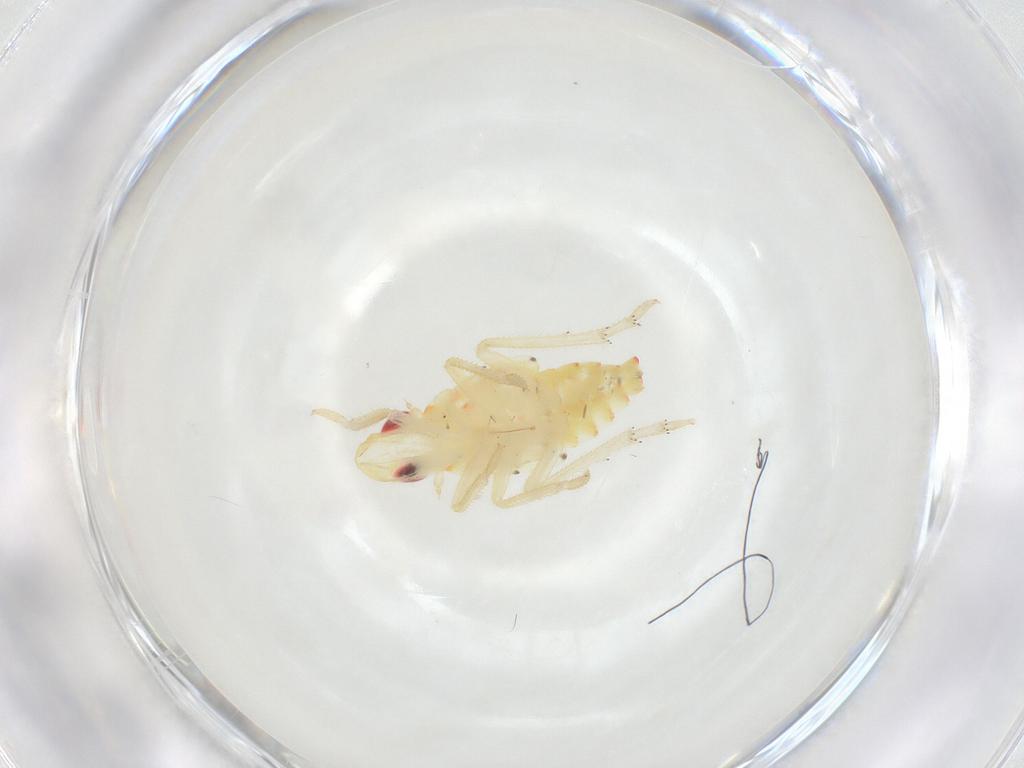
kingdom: Animalia
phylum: Arthropoda
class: Insecta
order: Hemiptera
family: Tropiduchidae
